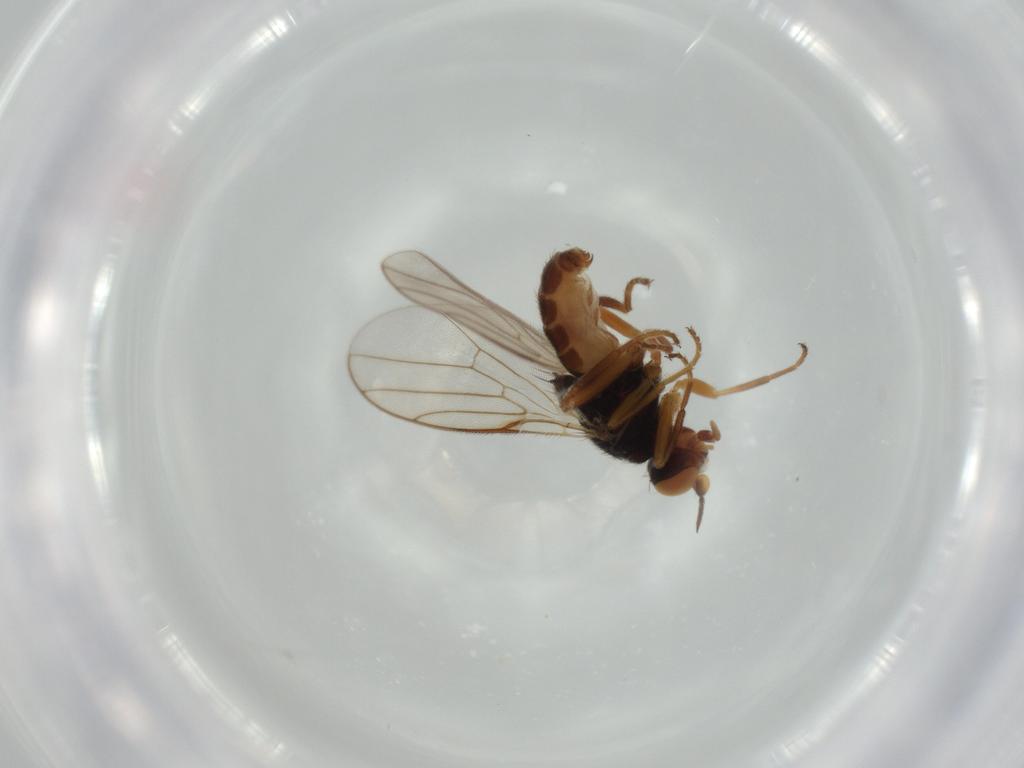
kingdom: Animalia
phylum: Arthropoda
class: Insecta
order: Diptera
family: Chloropidae
